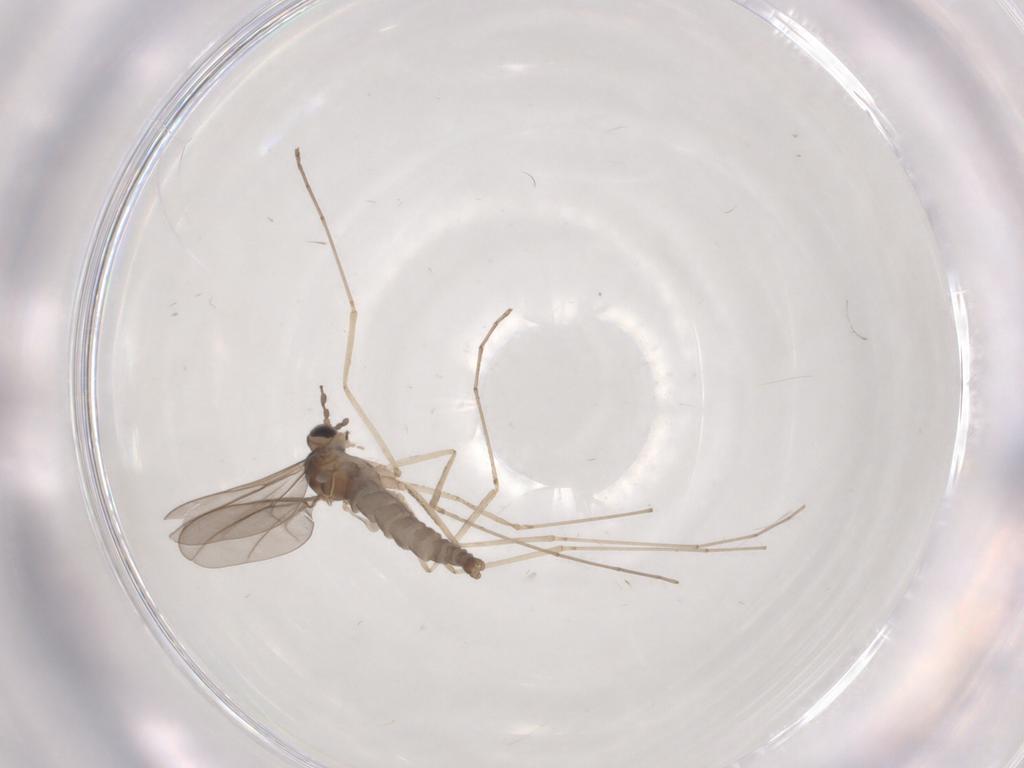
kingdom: Animalia
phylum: Arthropoda
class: Insecta
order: Diptera
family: Cecidomyiidae
